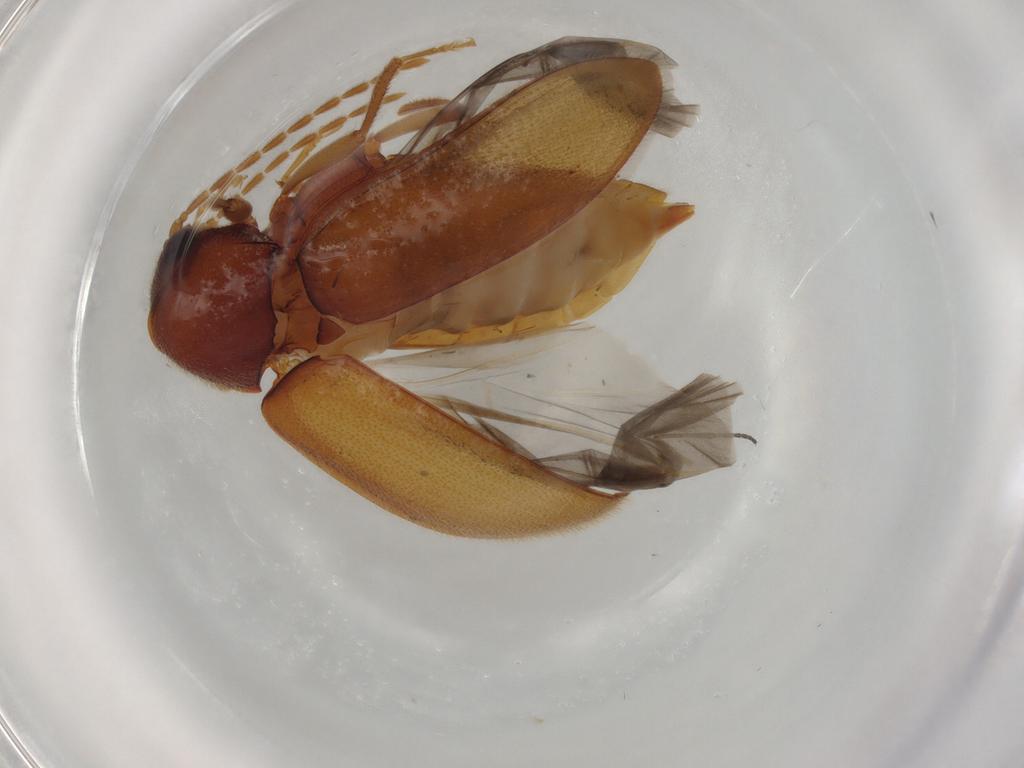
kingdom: Animalia
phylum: Arthropoda
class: Insecta
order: Coleoptera
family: Ptilodactylidae
